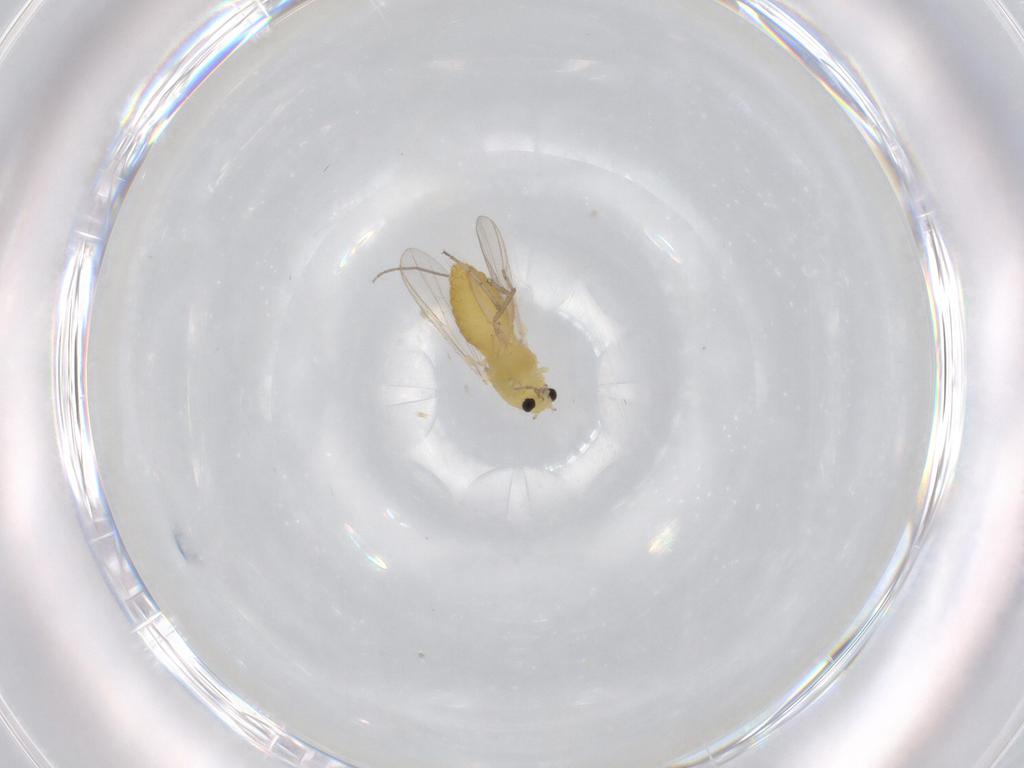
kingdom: Animalia
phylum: Arthropoda
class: Insecta
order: Diptera
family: Chironomidae
